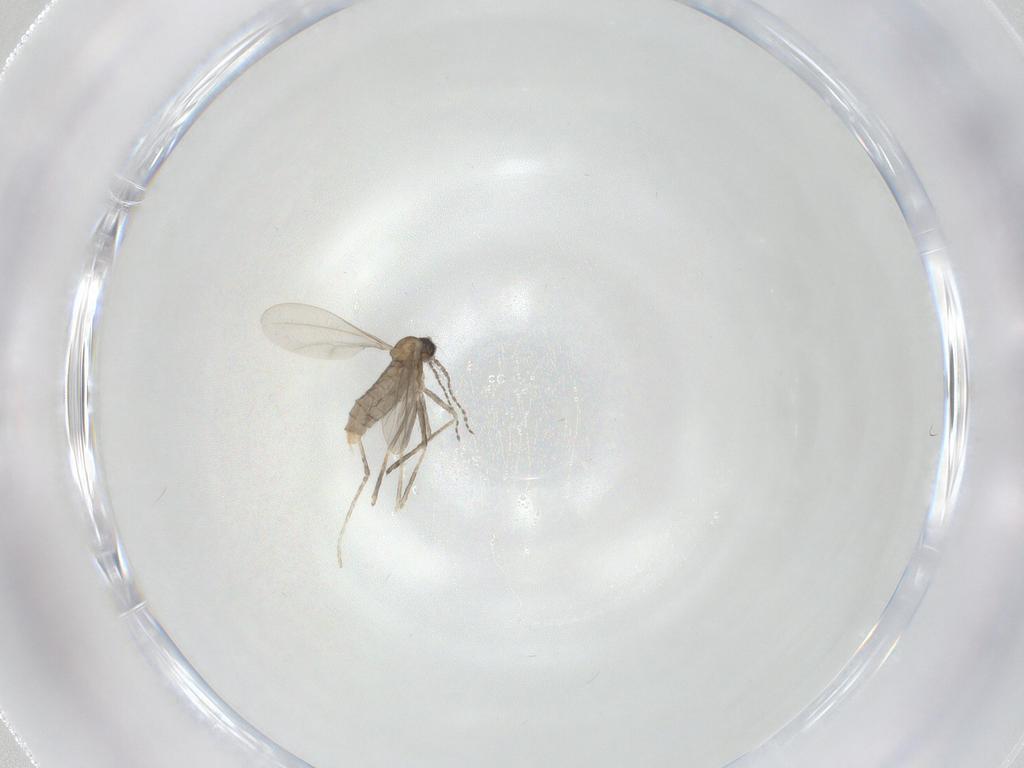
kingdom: Animalia
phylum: Arthropoda
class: Insecta
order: Diptera
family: Cecidomyiidae
